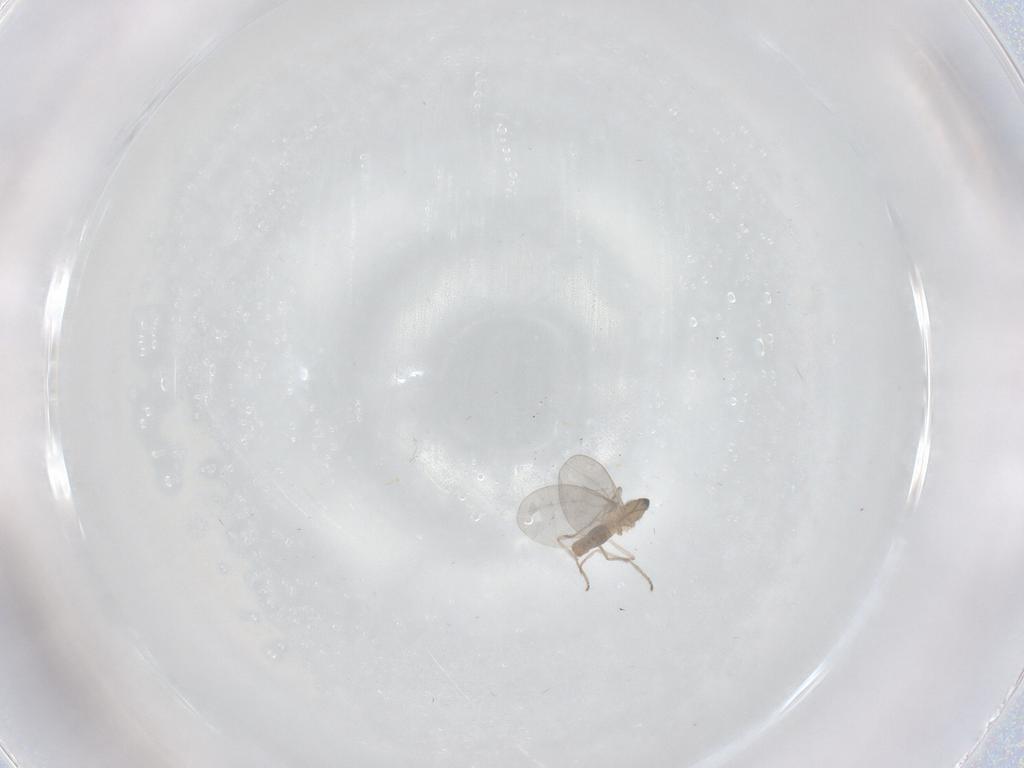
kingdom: Animalia
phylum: Arthropoda
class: Insecta
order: Diptera
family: Cecidomyiidae
